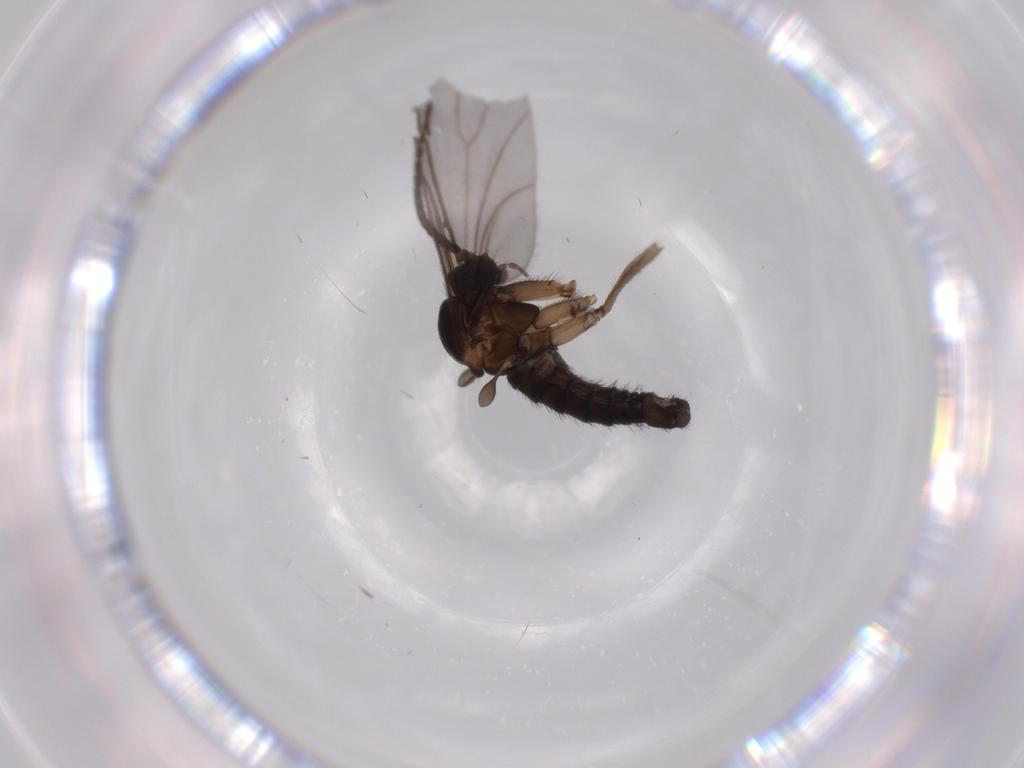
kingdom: Animalia
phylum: Arthropoda
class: Insecta
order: Diptera
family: Sciaridae
